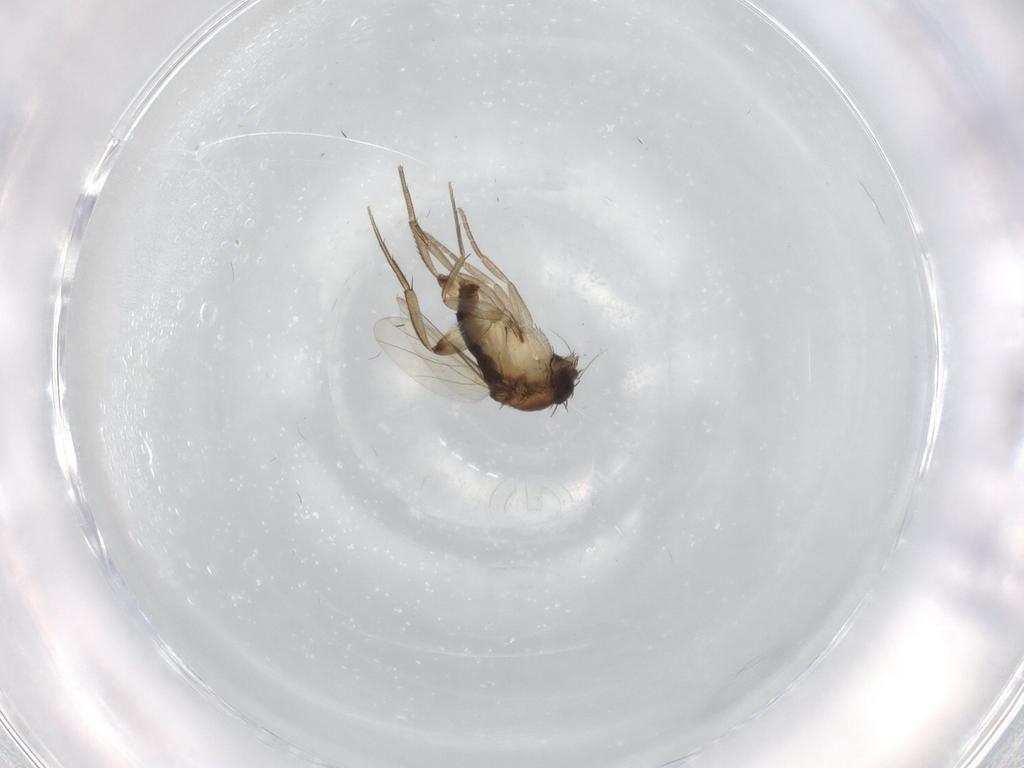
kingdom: Animalia
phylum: Arthropoda
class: Insecta
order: Diptera
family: Phoridae
